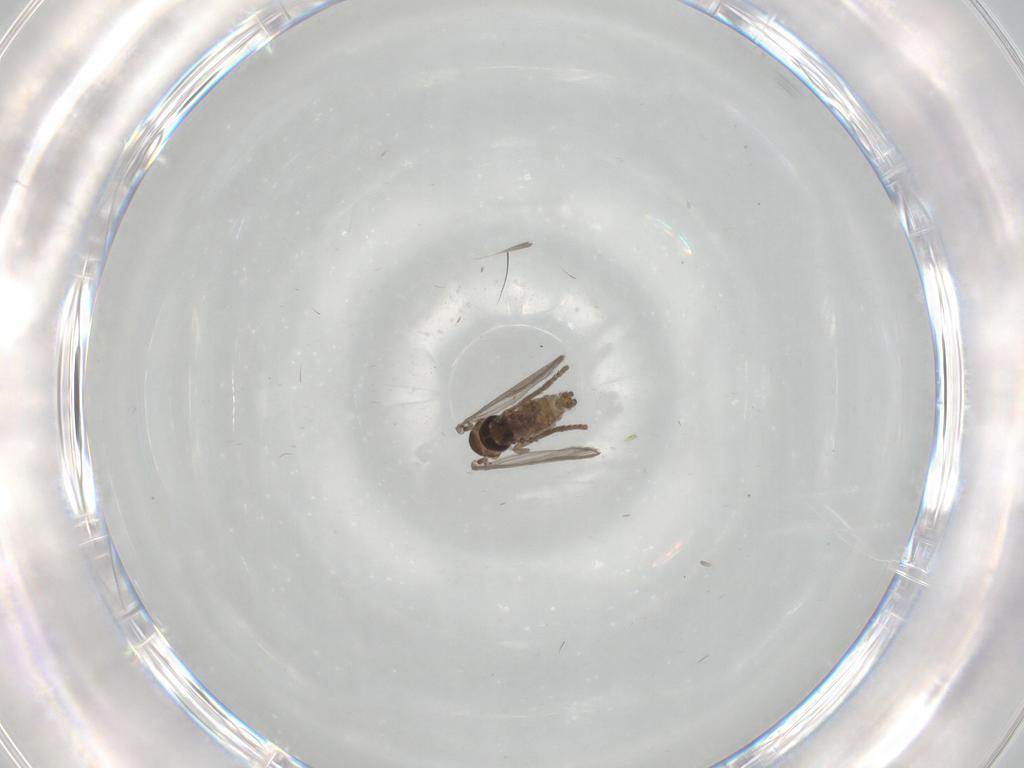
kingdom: Animalia
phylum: Arthropoda
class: Insecta
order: Diptera
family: Psychodidae
